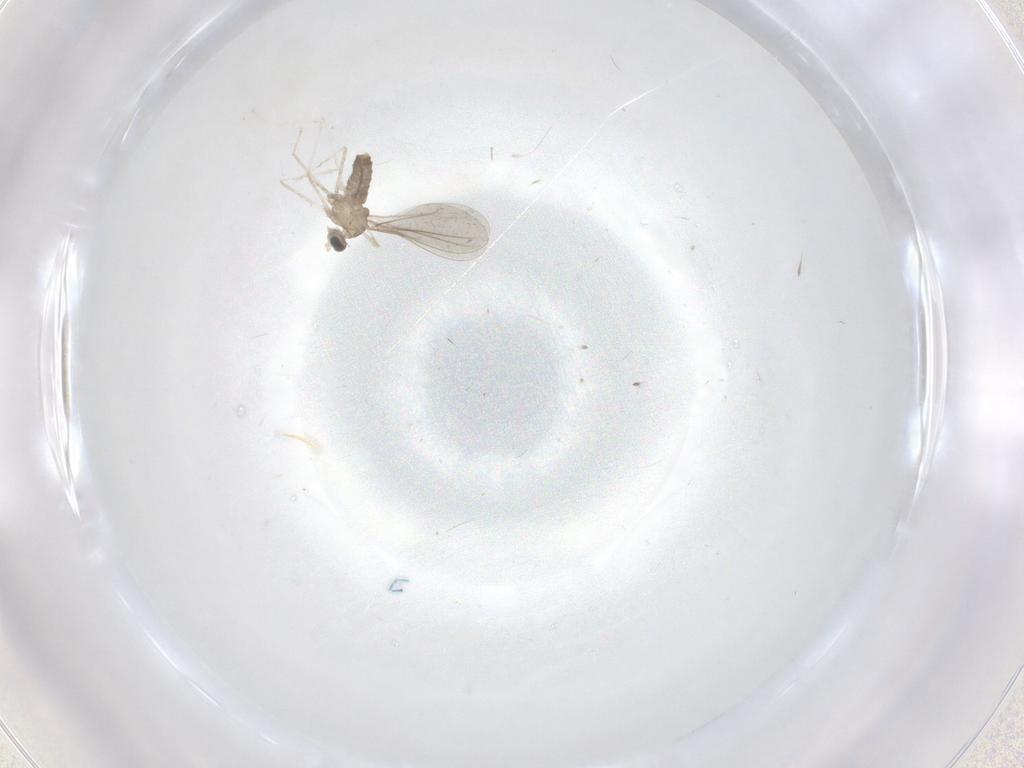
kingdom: Animalia
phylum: Arthropoda
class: Insecta
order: Diptera
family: Cecidomyiidae
